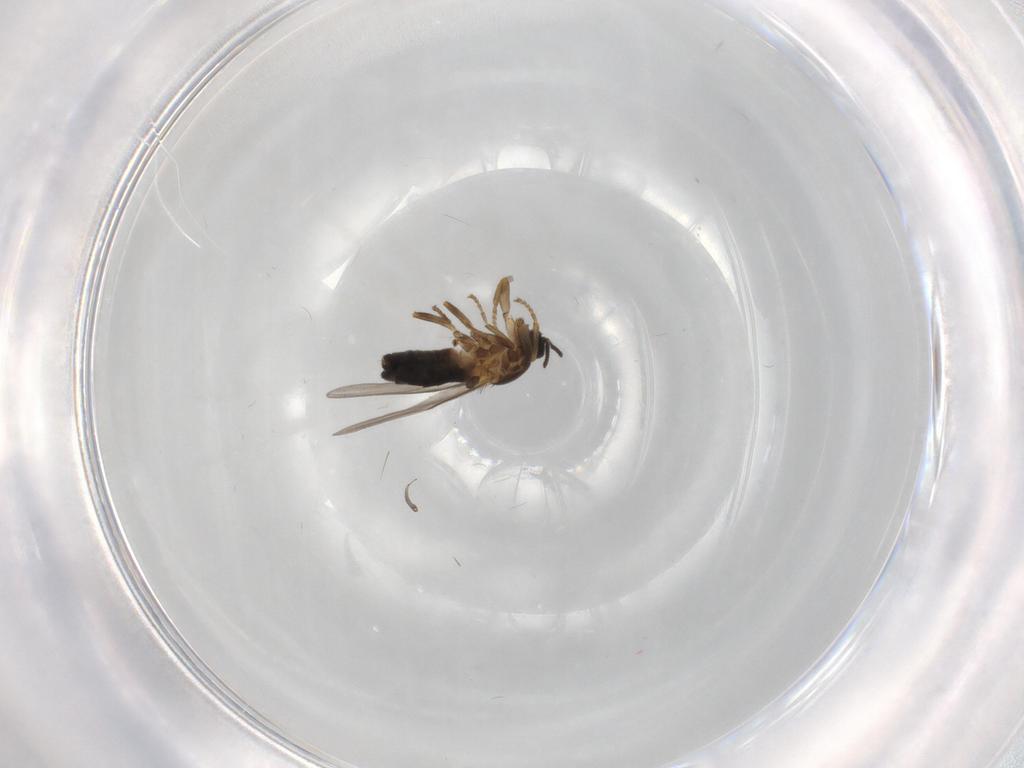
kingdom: Animalia
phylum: Arthropoda
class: Insecta
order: Diptera
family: Scatopsidae
